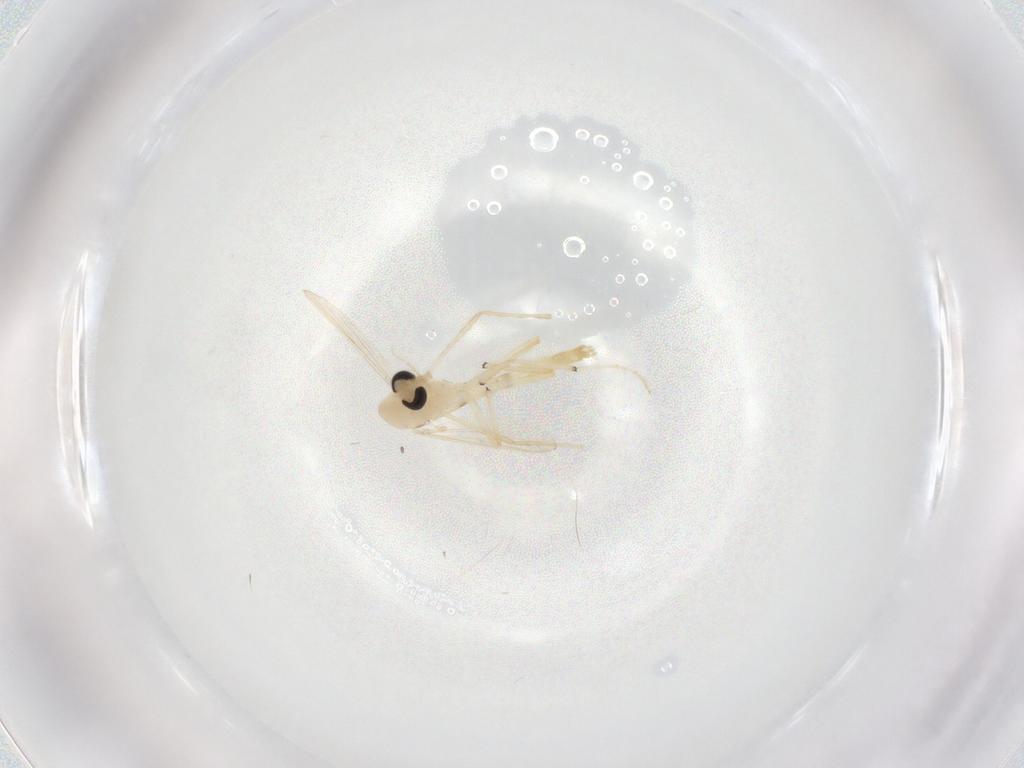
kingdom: Animalia
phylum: Arthropoda
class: Insecta
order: Diptera
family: Chironomidae
